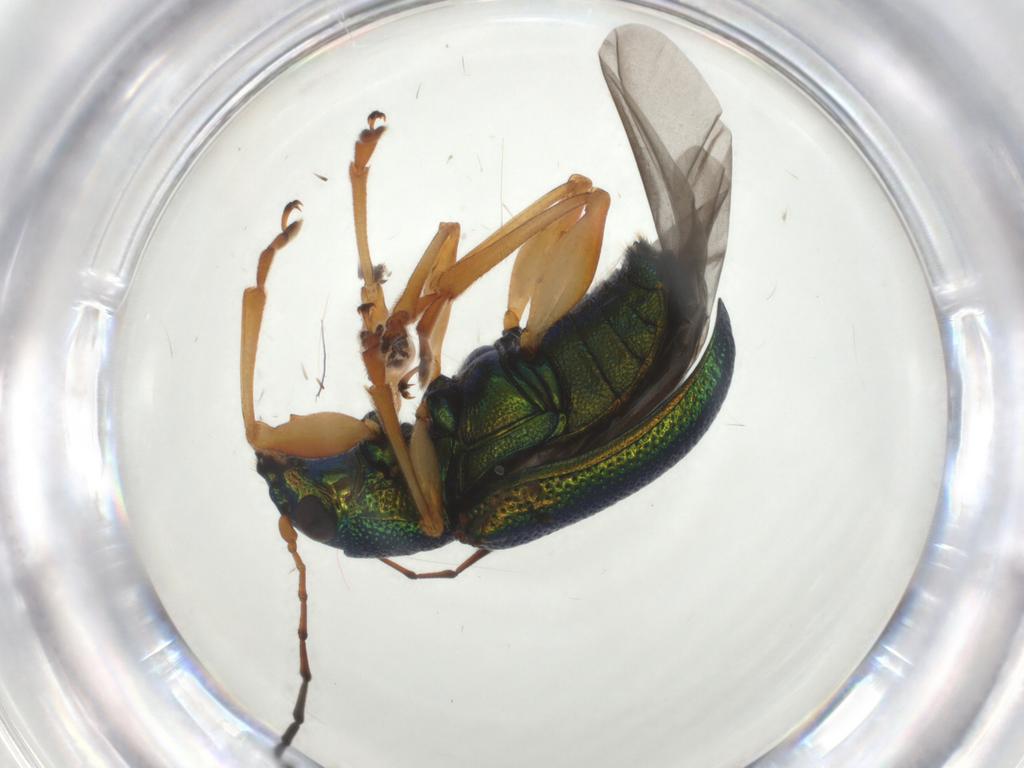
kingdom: Animalia
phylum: Arthropoda
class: Insecta
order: Coleoptera
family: Chrysomelidae
